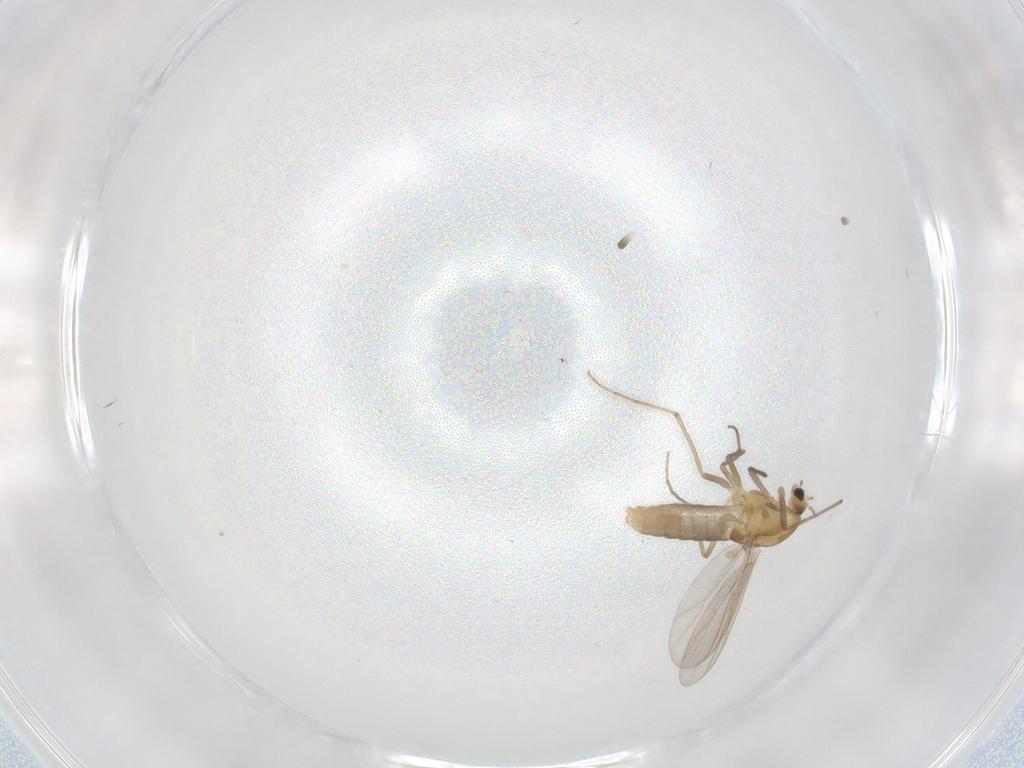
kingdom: Animalia
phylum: Arthropoda
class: Insecta
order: Diptera
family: Chironomidae
